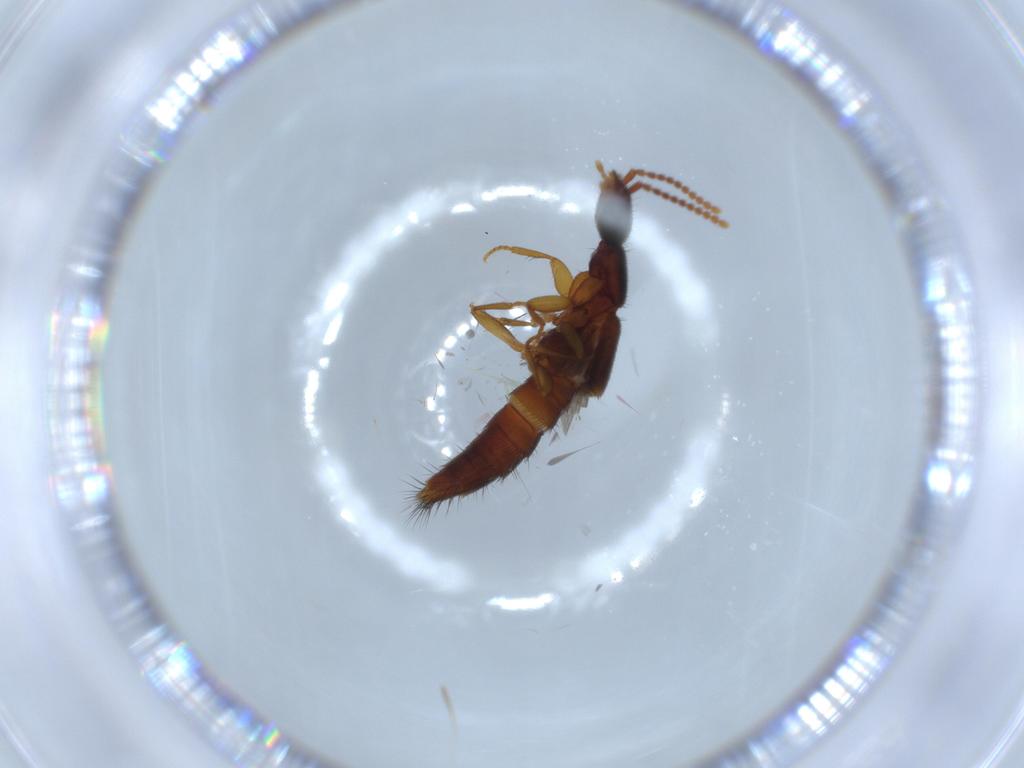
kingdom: Animalia
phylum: Arthropoda
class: Insecta
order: Coleoptera
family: Staphylinidae
